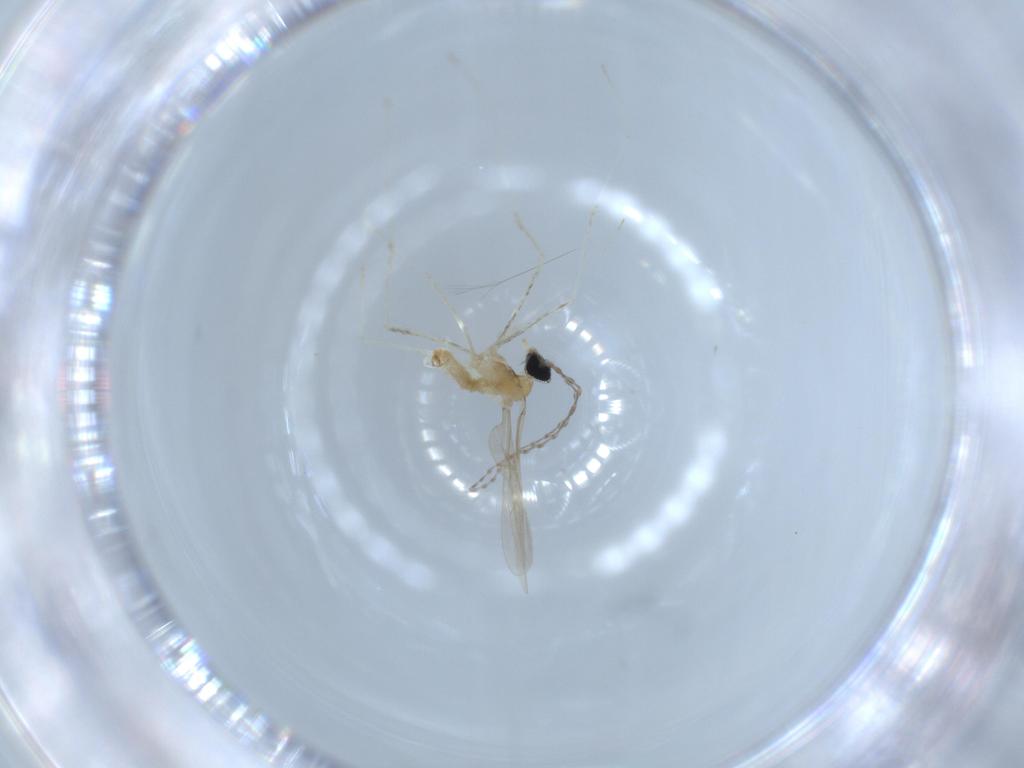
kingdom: Animalia
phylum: Arthropoda
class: Insecta
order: Diptera
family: Cecidomyiidae
